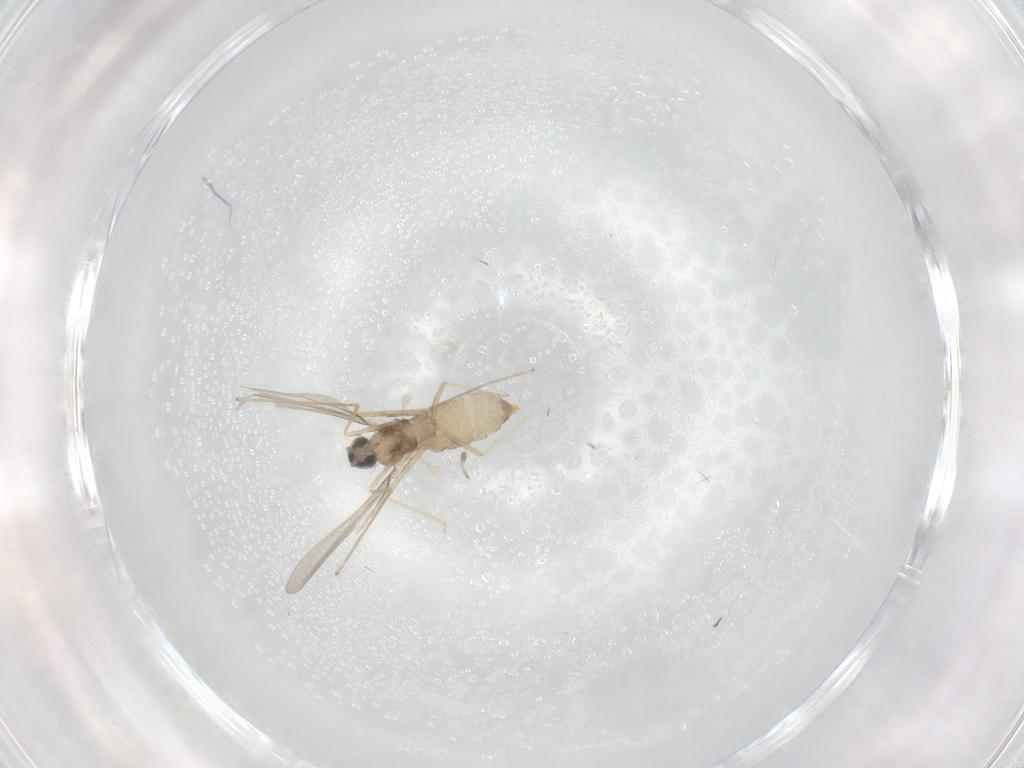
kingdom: Animalia
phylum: Arthropoda
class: Insecta
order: Diptera
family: Cecidomyiidae
